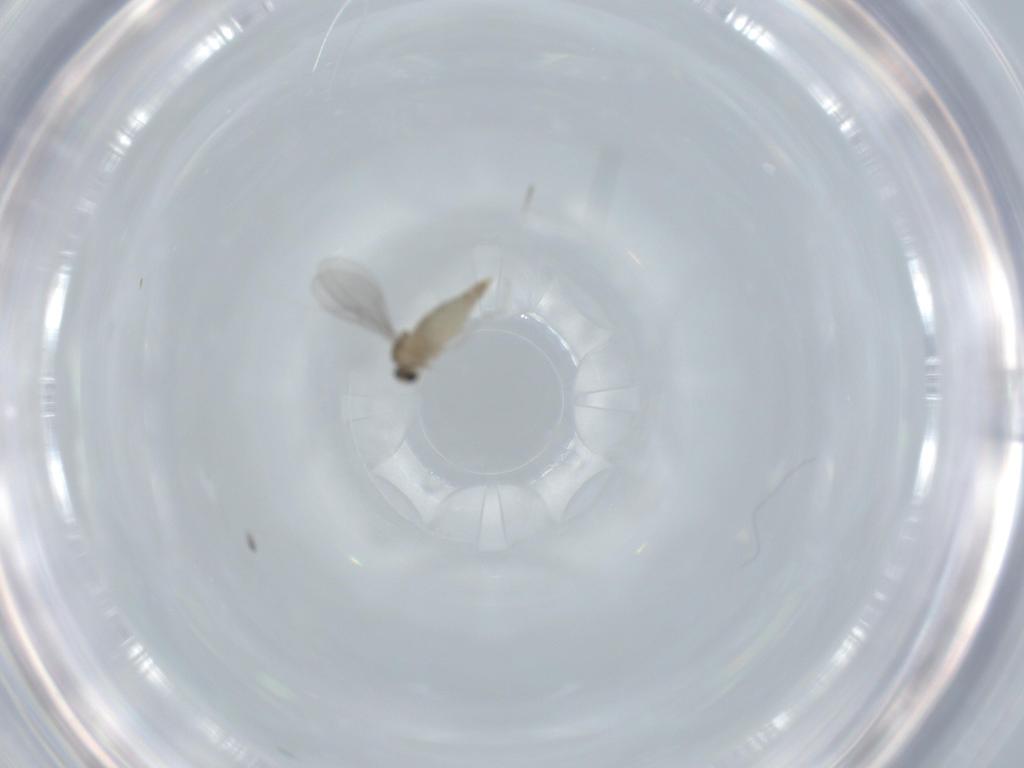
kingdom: Animalia
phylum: Arthropoda
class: Insecta
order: Diptera
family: Cecidomyiidae
